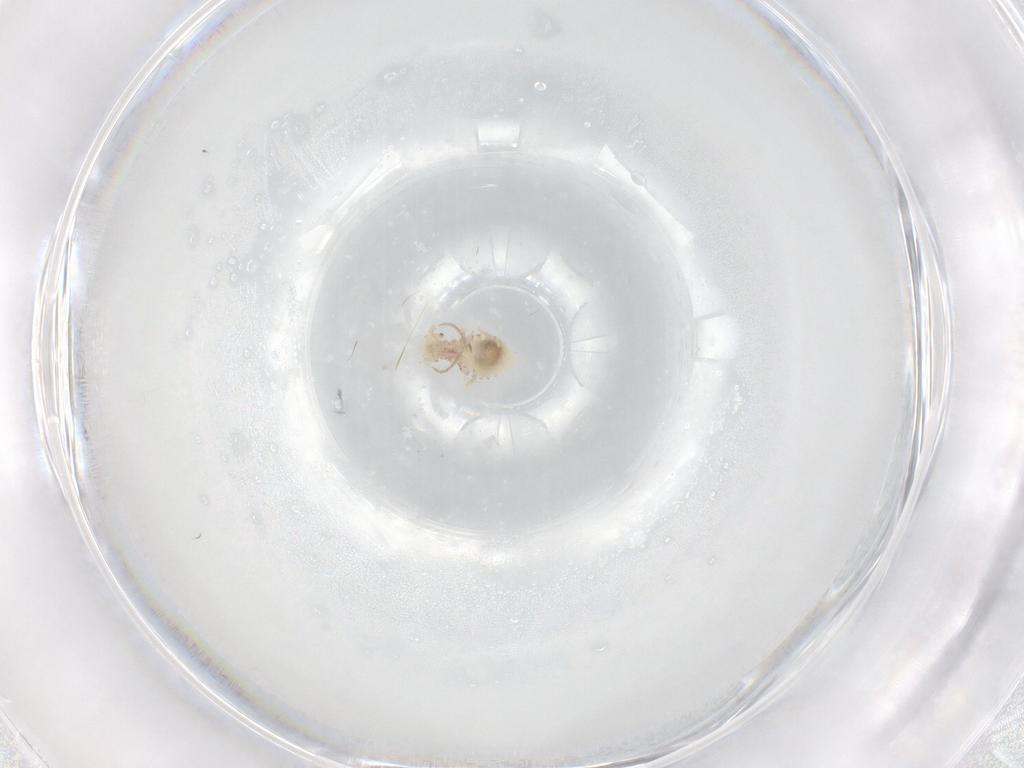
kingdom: Animalia
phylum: Arthropoda
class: Insecta
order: Psocodea
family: Cladiopsocidae
